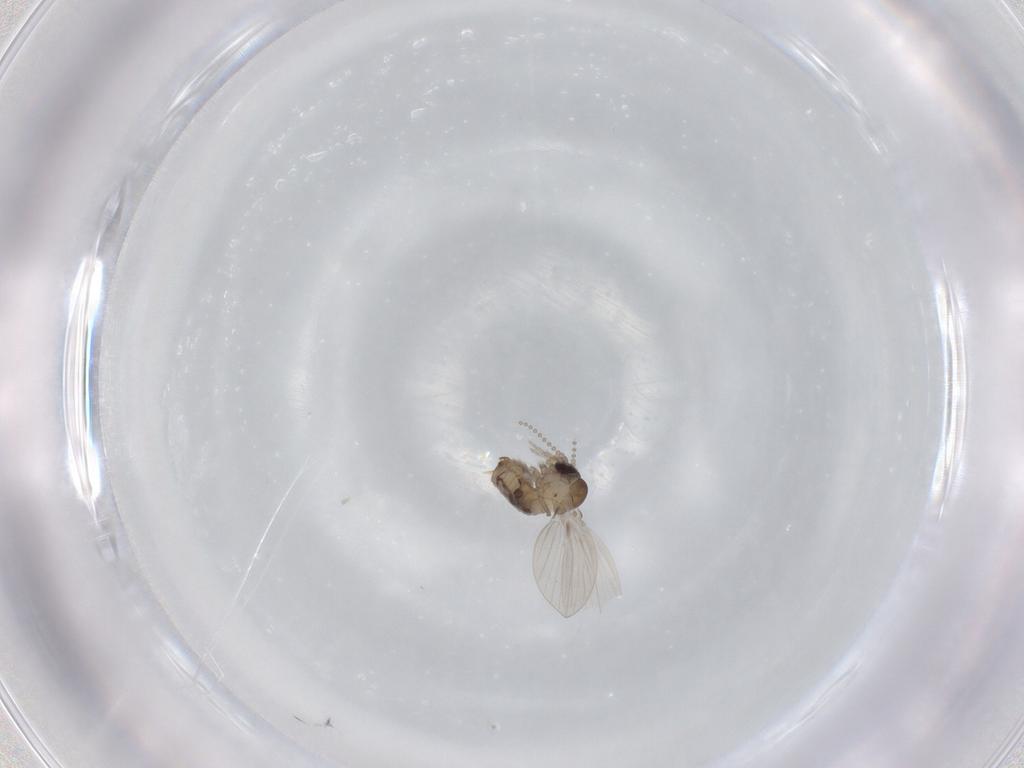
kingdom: Animalia
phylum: Arthropoda
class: Insecta
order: Diptera
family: Psychodidae
